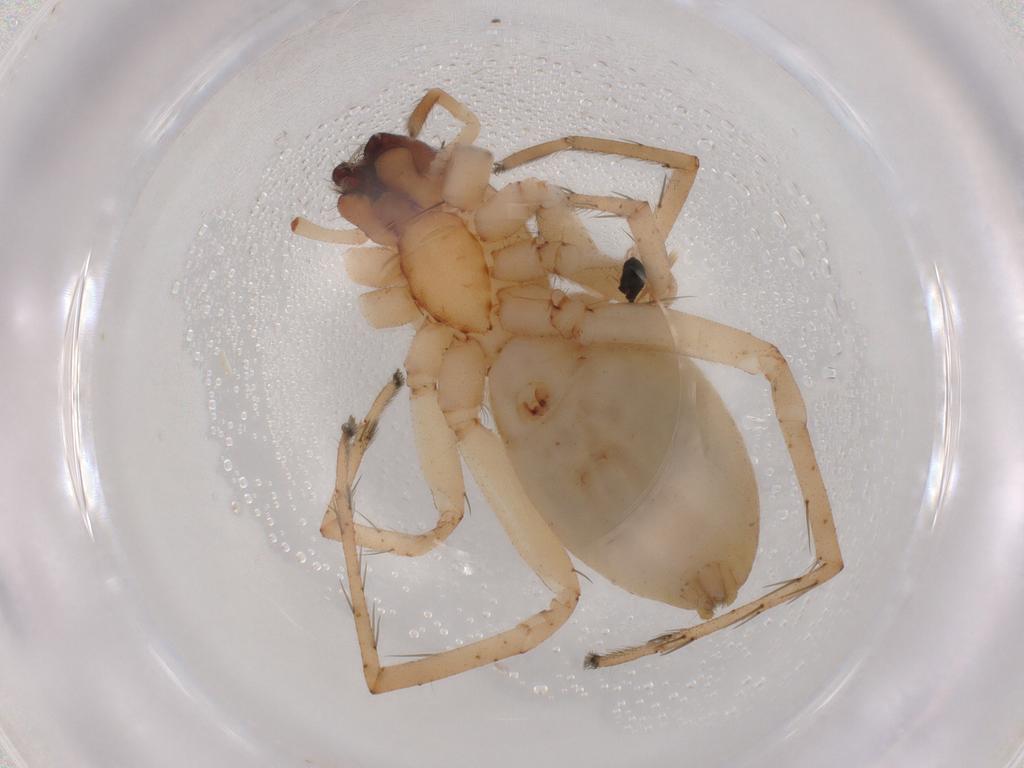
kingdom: Animalia
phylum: Arthropoda
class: Arachnida
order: Araneae
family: Anyphaenidae
